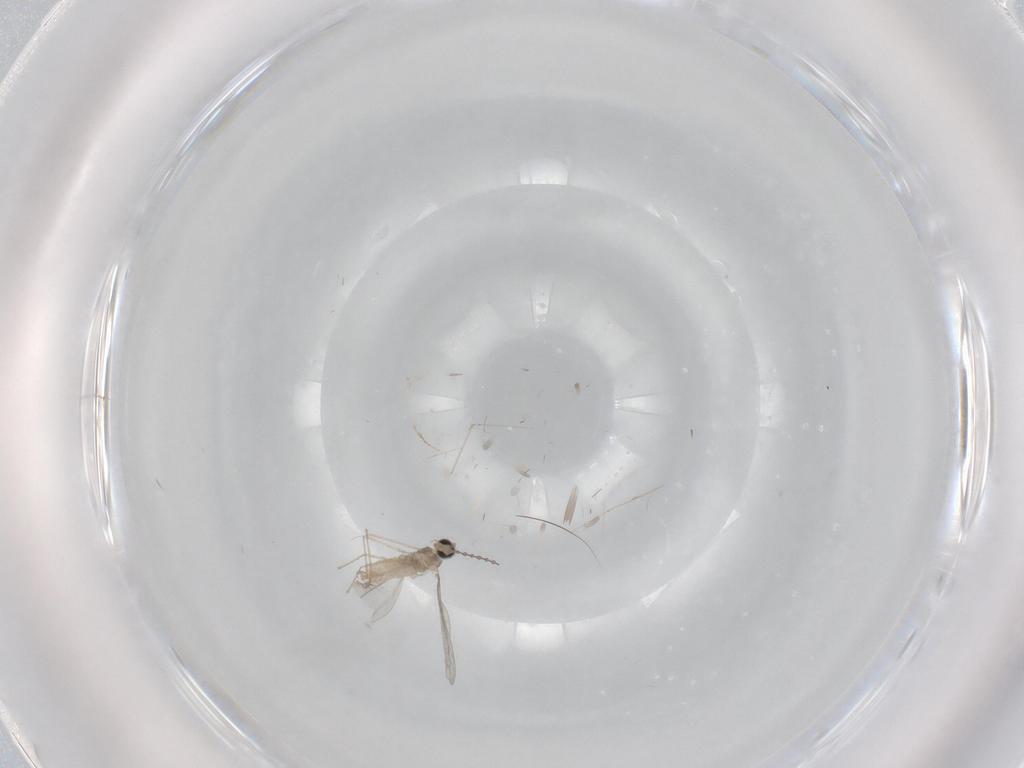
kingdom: Animalia
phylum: Arthropoda
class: Insecta
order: Diptera
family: Cecidomyiidae
